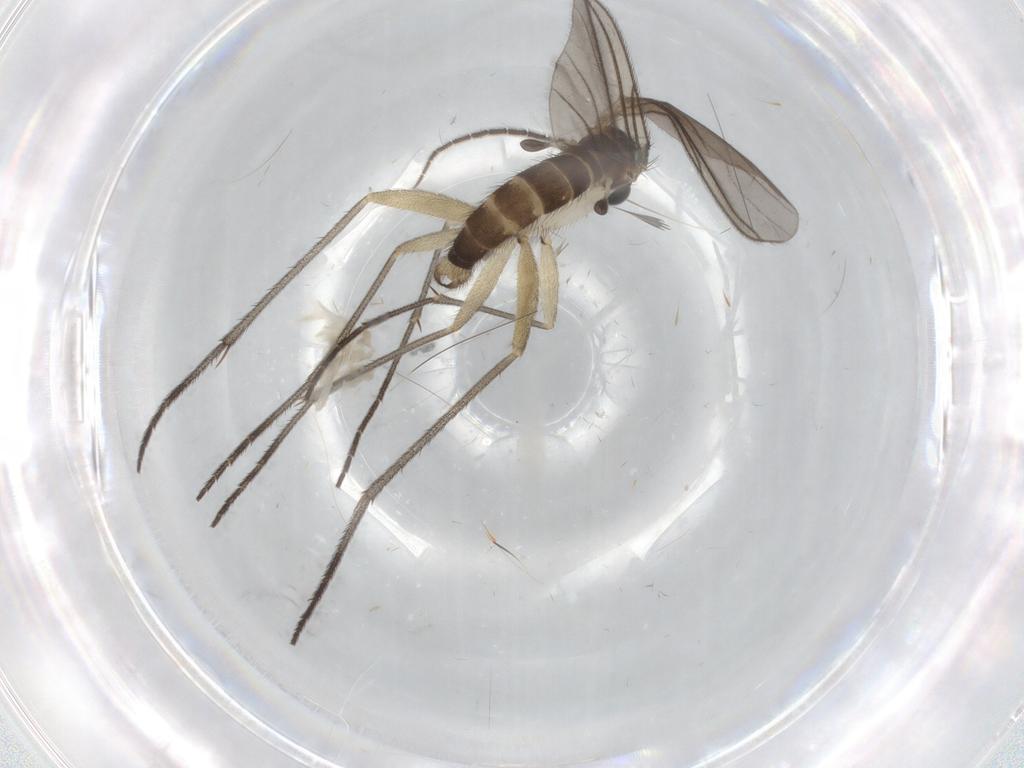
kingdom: Animalia
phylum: Arthropoda
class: Insecta
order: Diptera
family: Sciaridae
